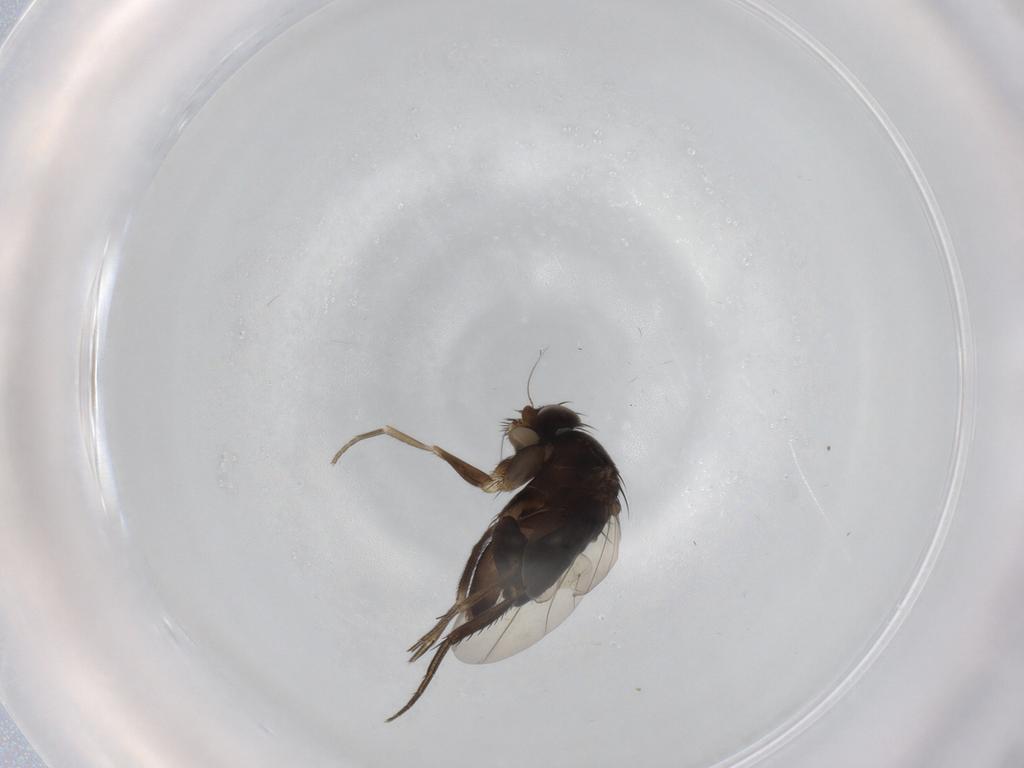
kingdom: Animalia
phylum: Arthropoda
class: Insecta
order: Diptera
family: Phoridae
